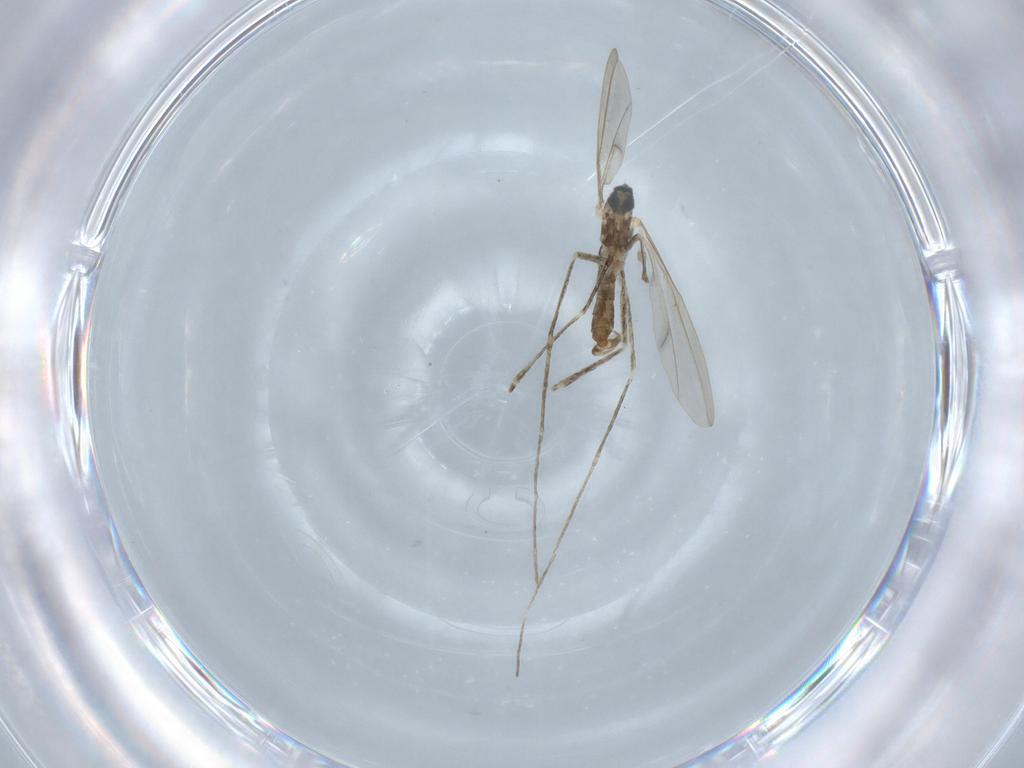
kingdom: Animalia
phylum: Arthropoda
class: Insecta
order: Diptera
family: Cecidomyiidae
